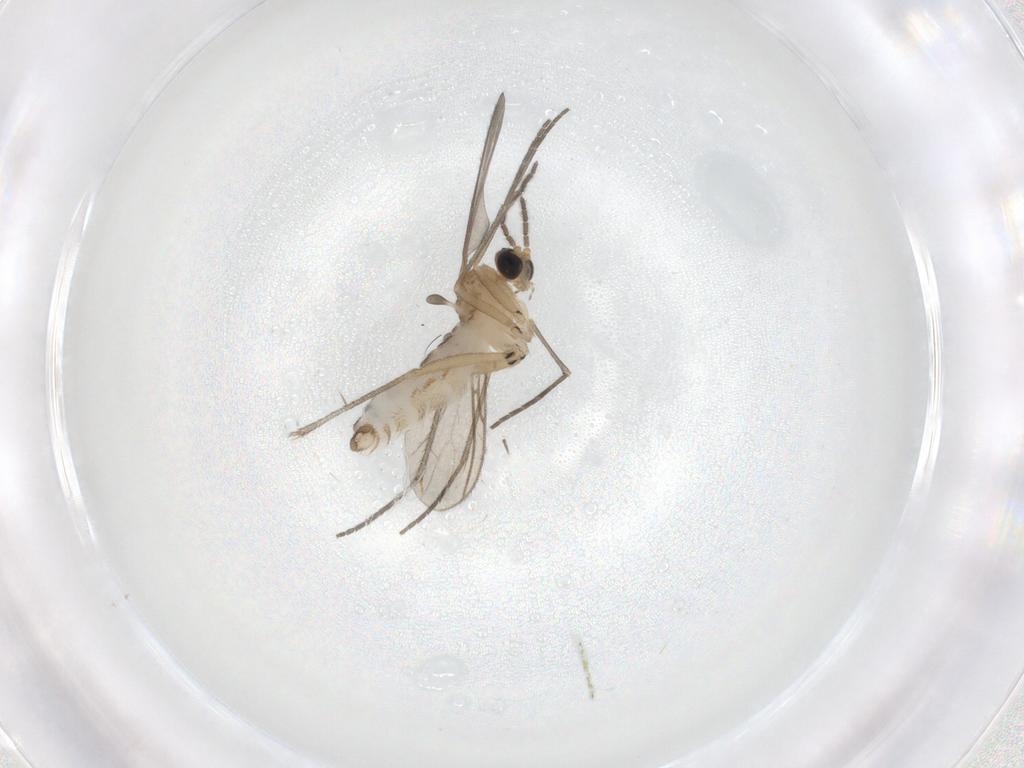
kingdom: Animalia
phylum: Arthropoda
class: Insecta
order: Diptera
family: Sciaridae
